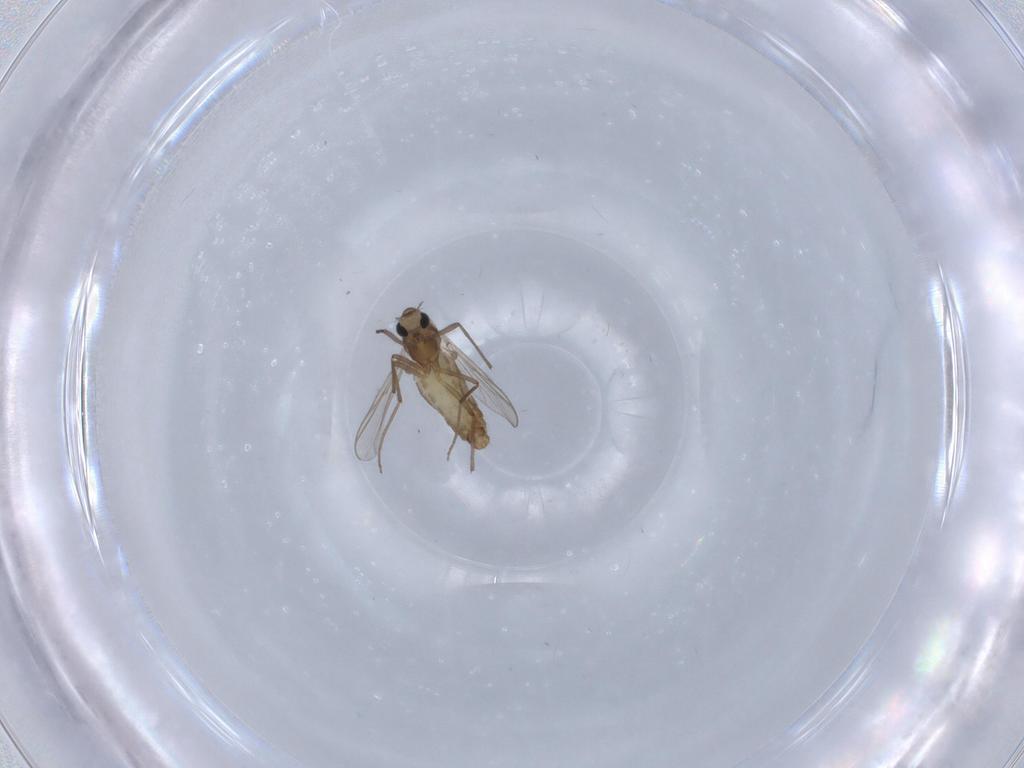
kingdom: Animalia
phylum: Arthropoda
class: Insecta
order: Diptera
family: Chironomidae
